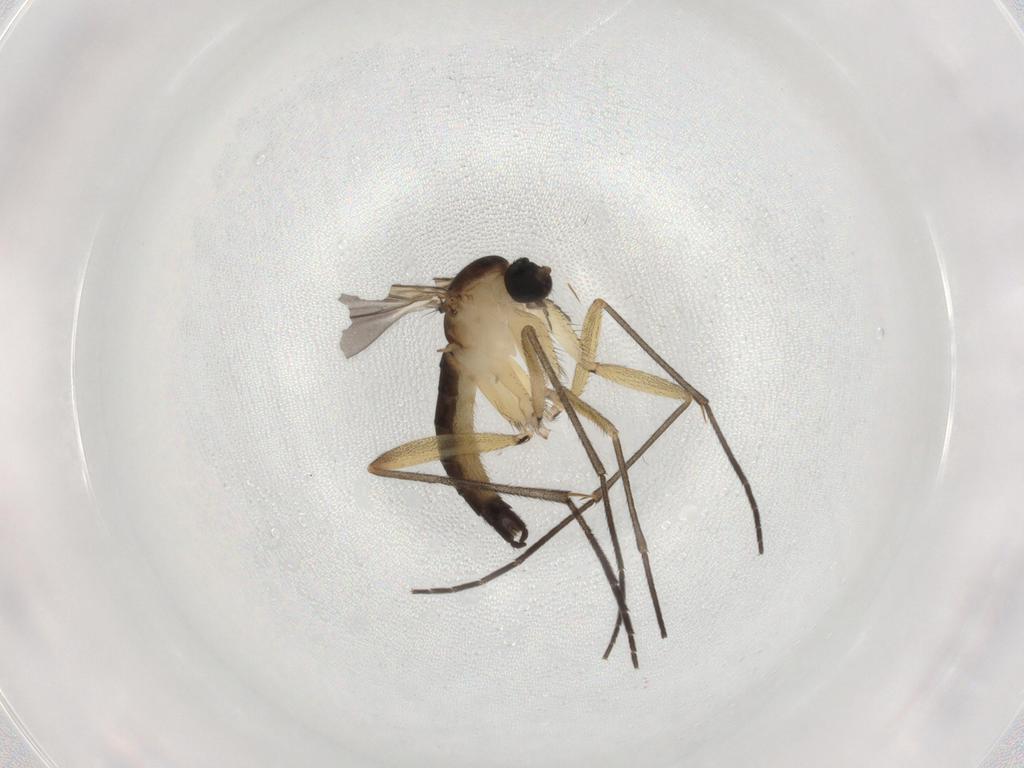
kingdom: Animalia
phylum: Arthropoda
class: Insecta
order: Diptera
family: Sciaridae
